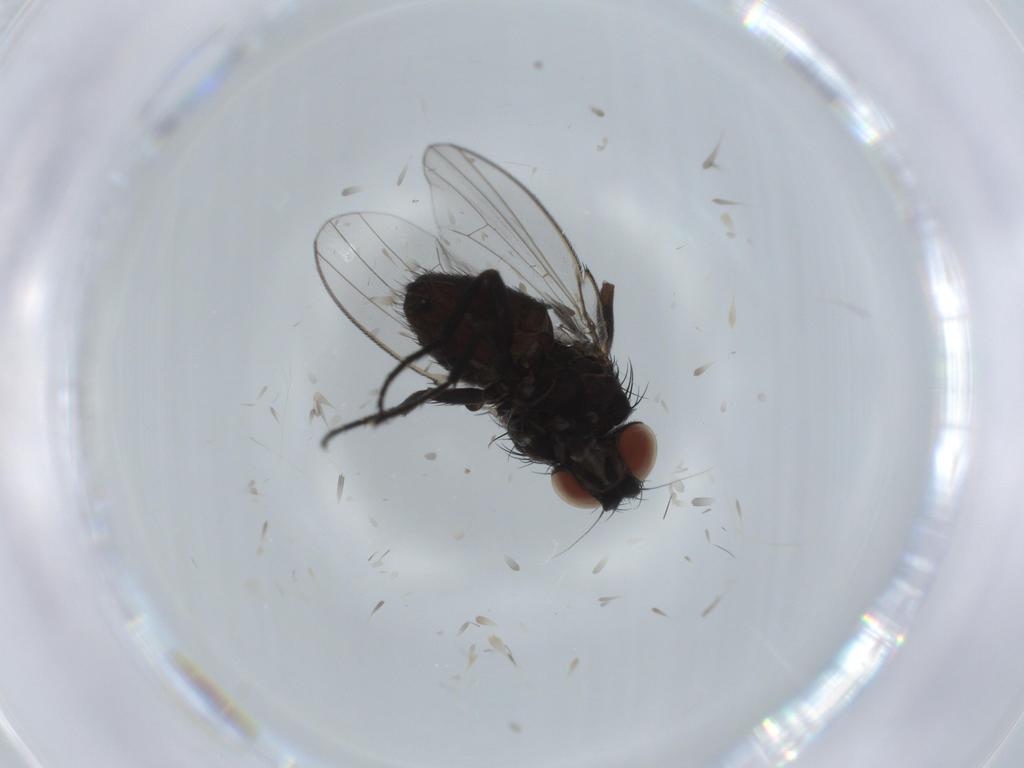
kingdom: Animalia
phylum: Arthropoda
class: Insecta
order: Diptera
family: Milichiidae
